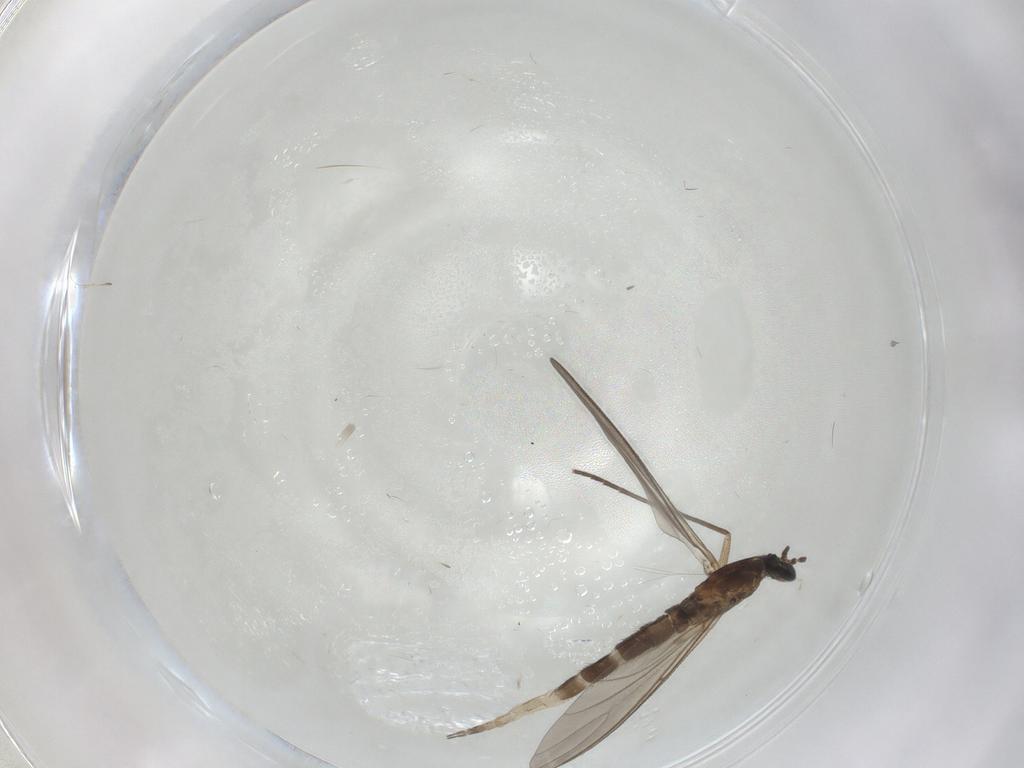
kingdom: Animalia
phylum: Arthropoda
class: Insecta
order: Diptera
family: Sciaridae
